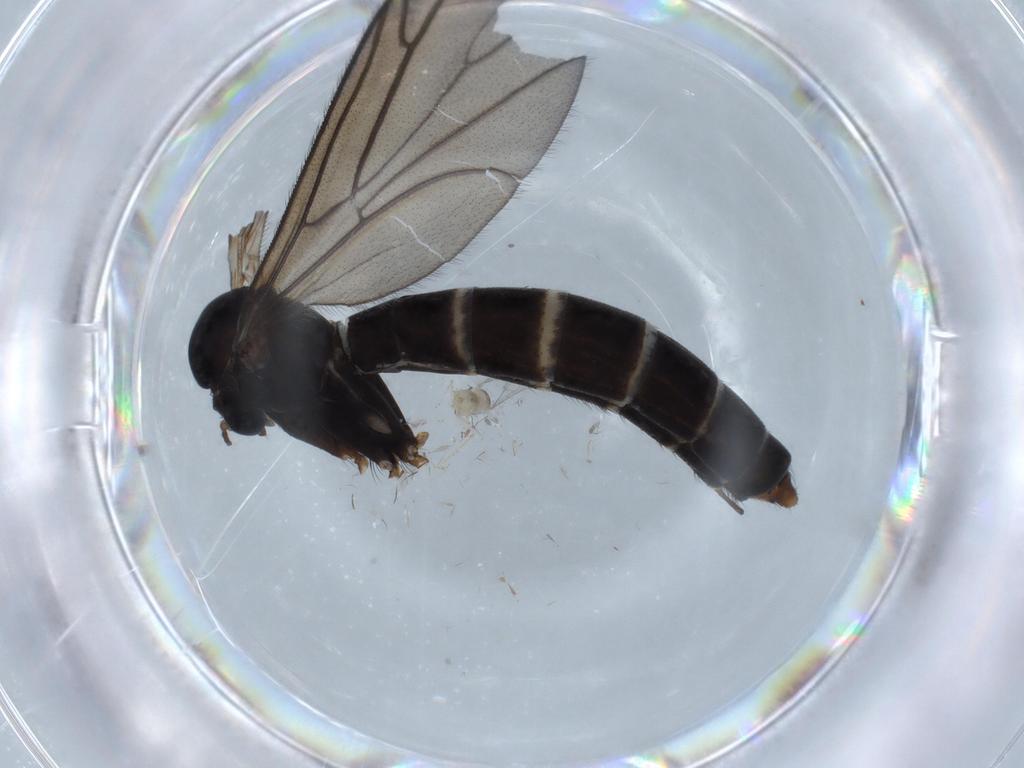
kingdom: Animalia
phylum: Arthropoda
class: Insecta
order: Diptera
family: Ditomyiidae
